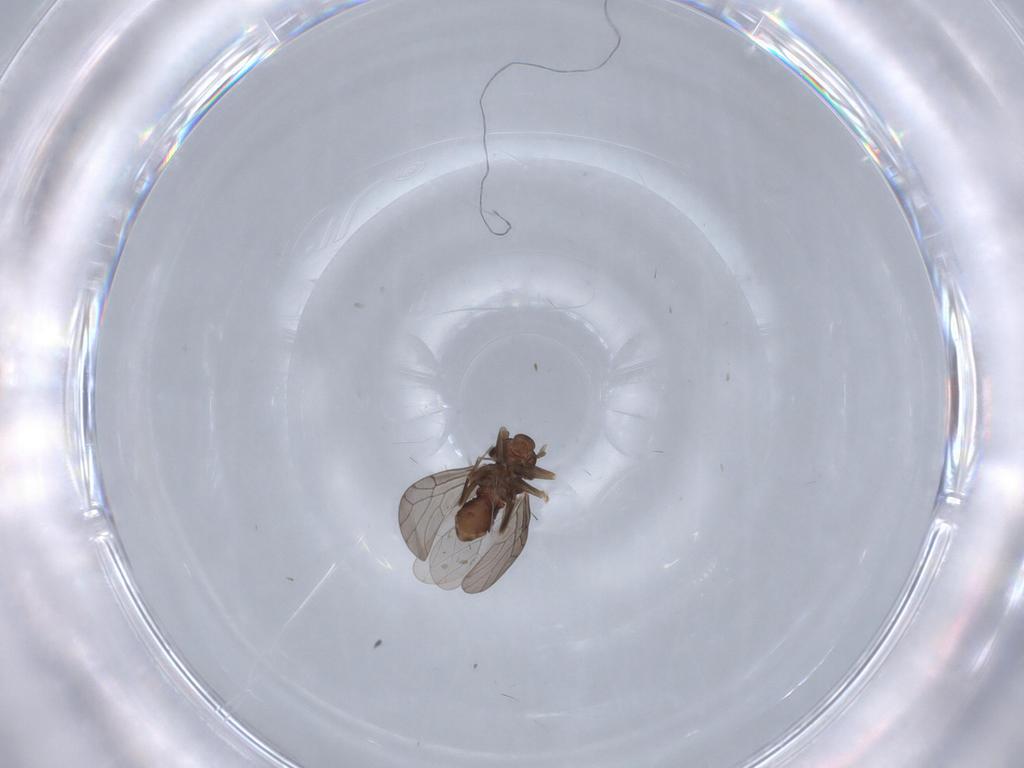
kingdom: Animalia
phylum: Arthropoda
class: Insecta
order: Psocodea
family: Lepidopsocidae
